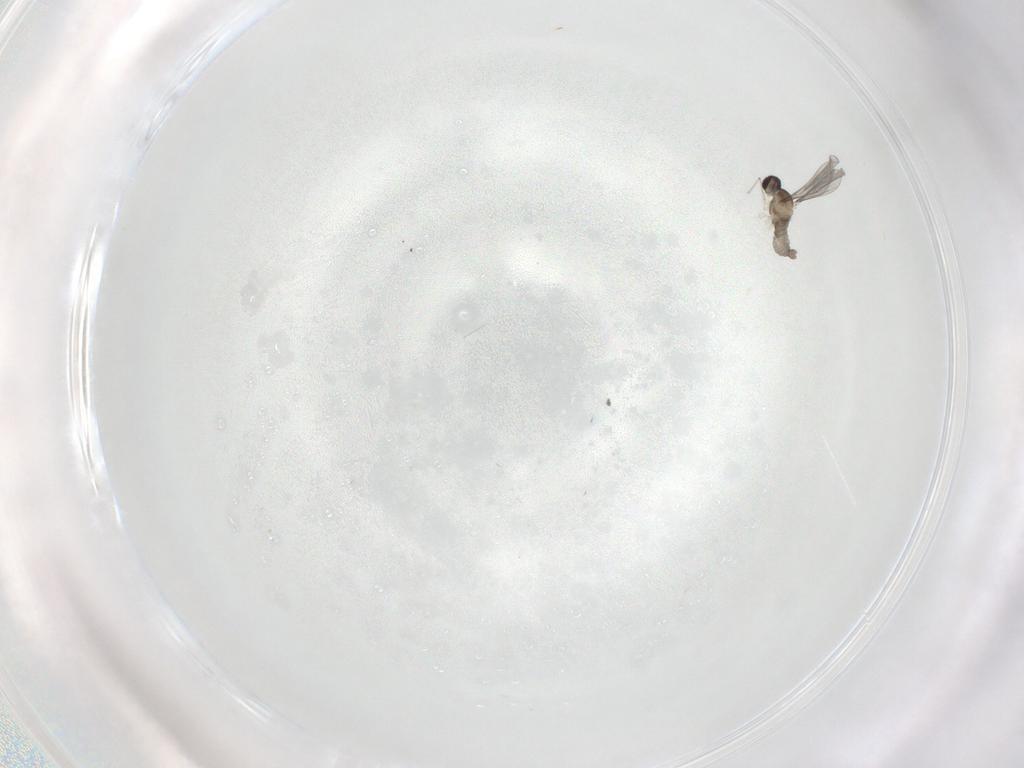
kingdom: Animalia
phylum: Arthropoda
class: Insecta
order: Diptera
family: Cecidomyiidae
